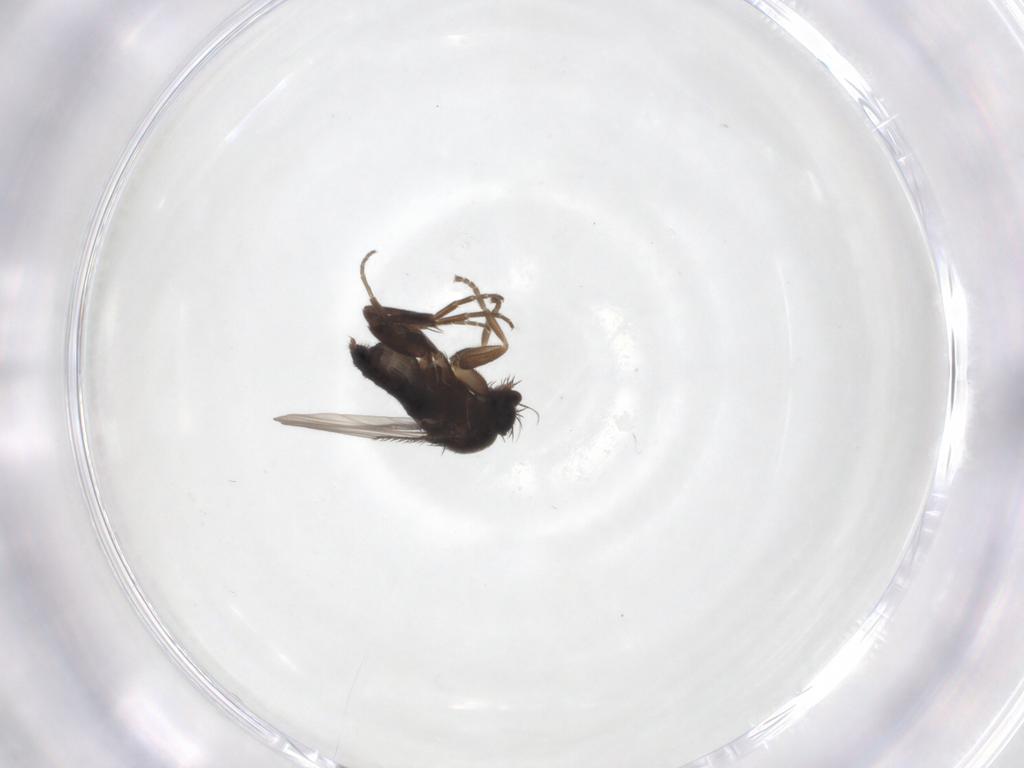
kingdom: Animalia
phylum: Arthropoda
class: Insecta
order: Diptera
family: Phoridae
